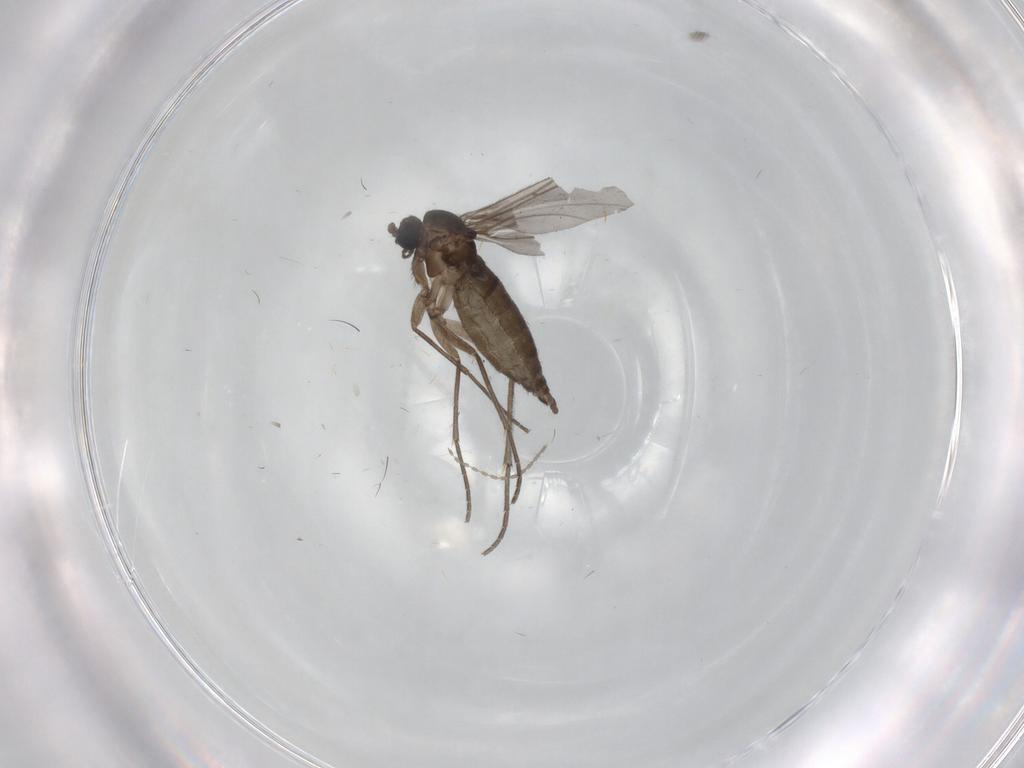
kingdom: Animalia
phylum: Arthropoda
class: Insecta
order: Diptera
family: Sciaridae
